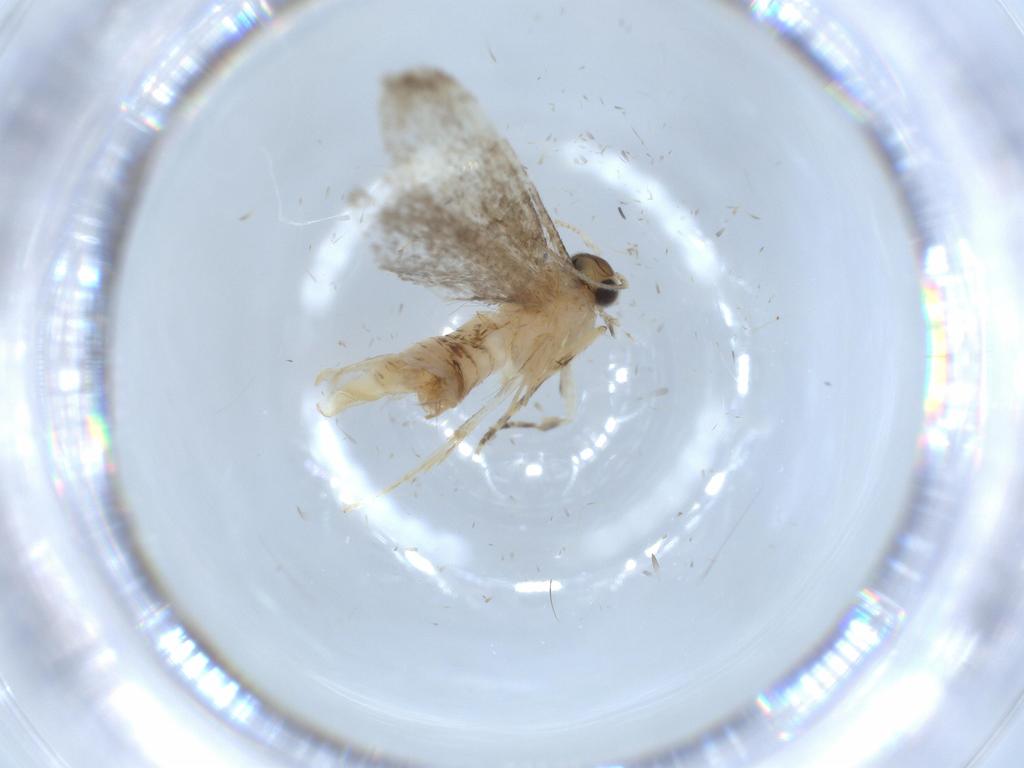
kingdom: Animalia
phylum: Arthropoda
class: Insecta
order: Lepidoptera
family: Tineidae
